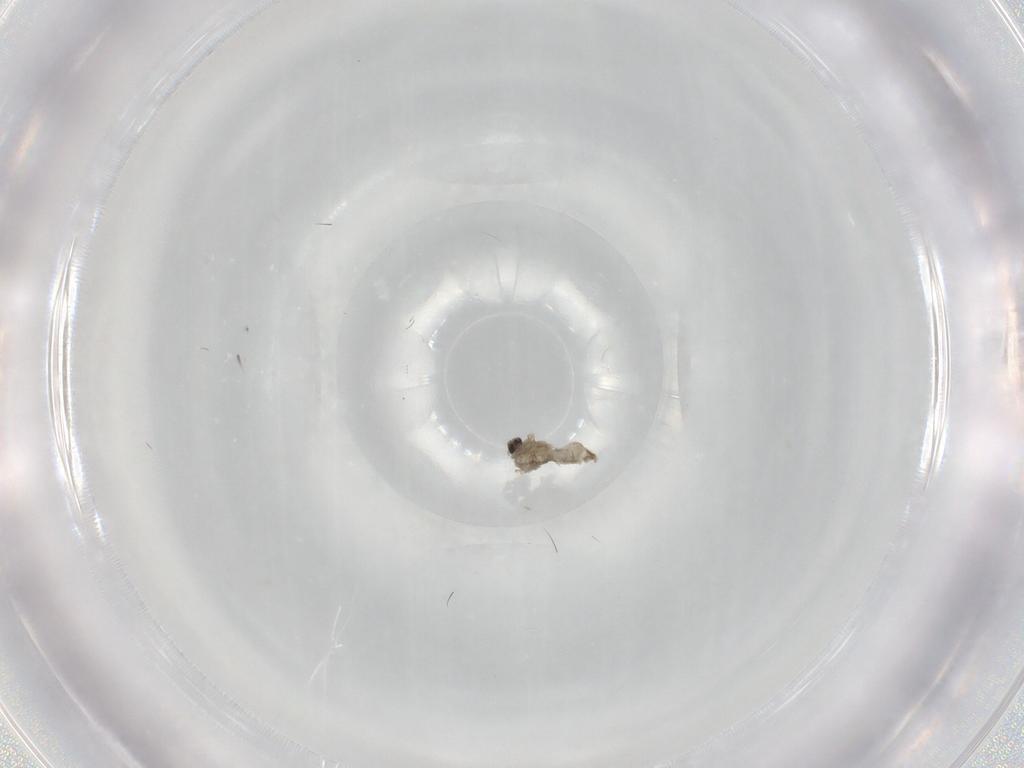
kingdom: Animalia
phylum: Arthropoda
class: Insecta
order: Diptera
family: Cecidomyiidae
